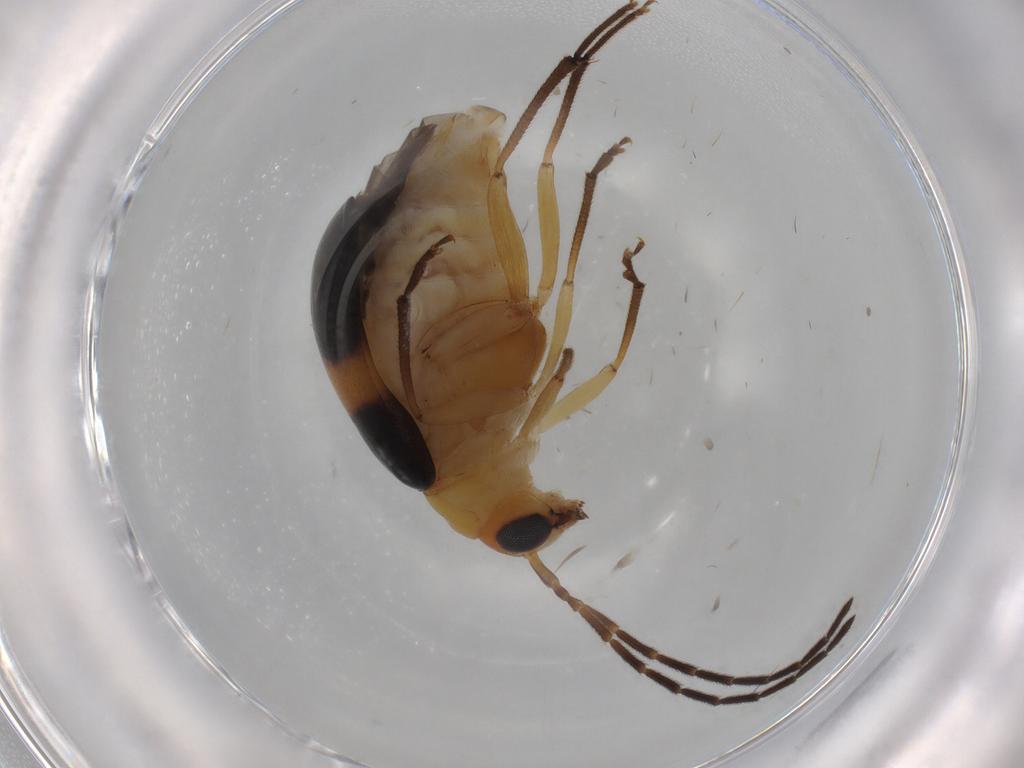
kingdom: Animalia
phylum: Arthropoda
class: Insecta
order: Coleoptera
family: Chrysomelidae
